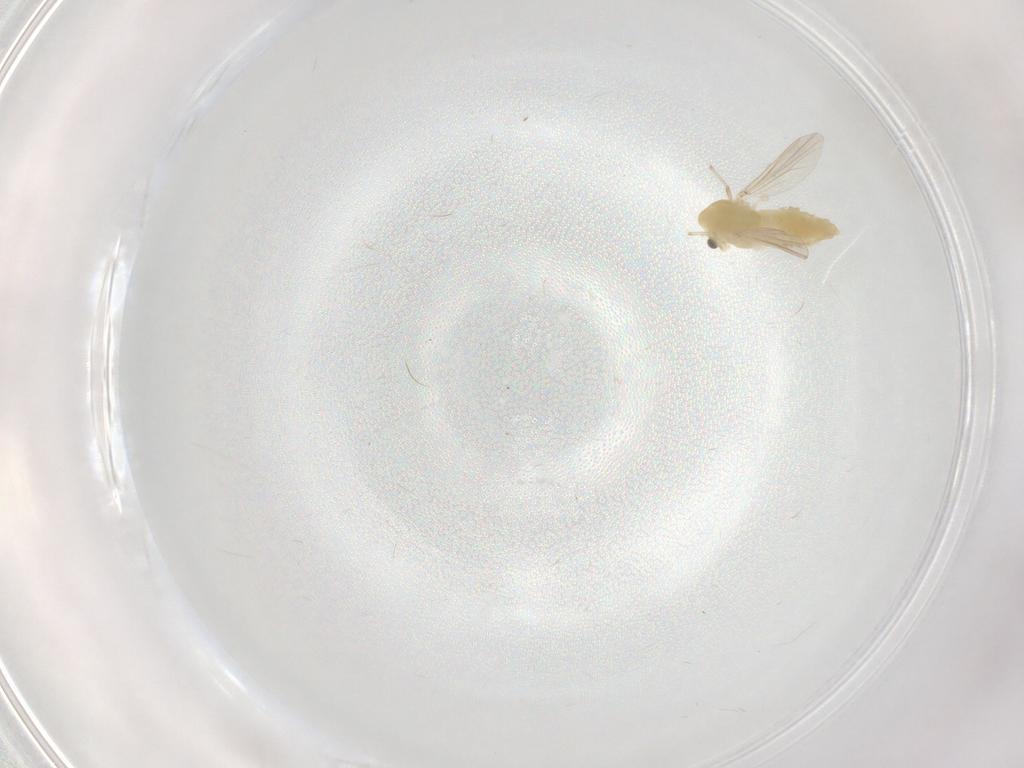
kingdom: Animalia
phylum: Arthropoda
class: Insecta
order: Diptera
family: Chironomidae
